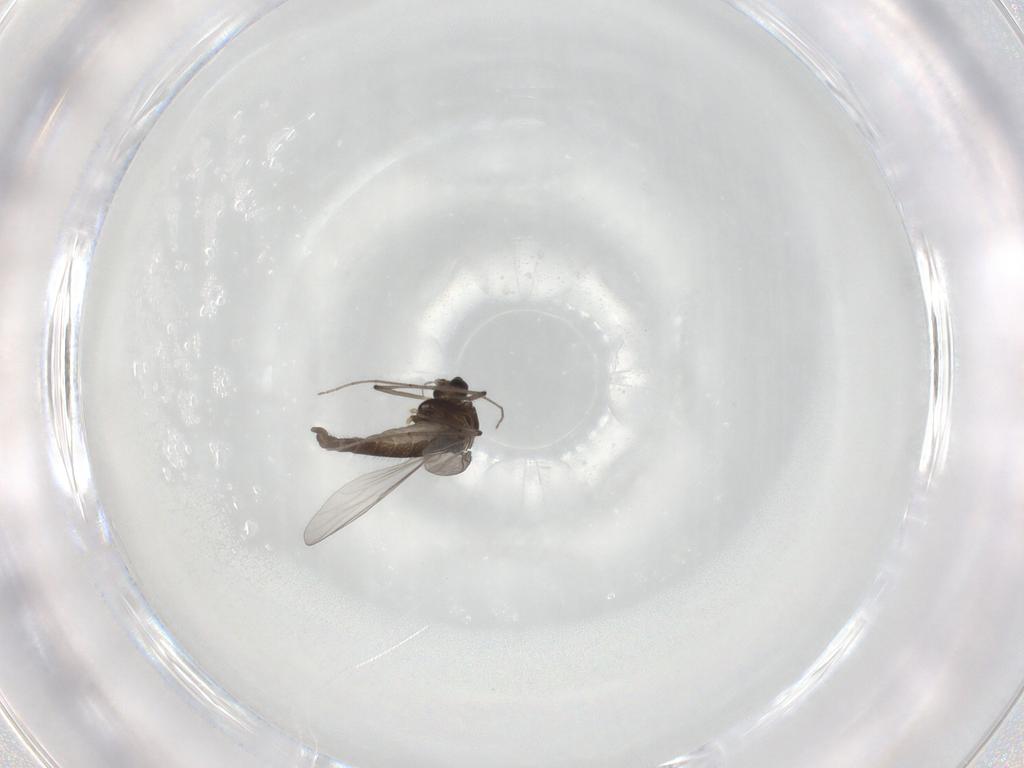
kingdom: Animalia
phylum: Arthropoda
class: Insecta
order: Diptera
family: Chironomidae
